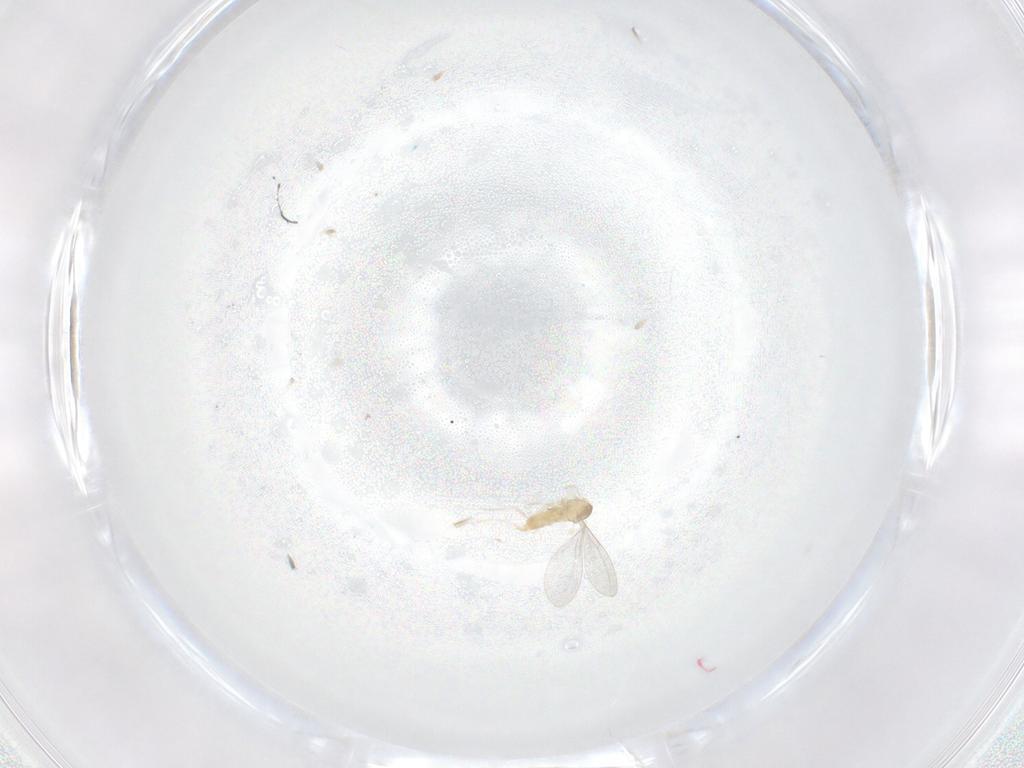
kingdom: Animalia
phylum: Arthropoda
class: Insecta
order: Diptera
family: Cecidomyiidae
